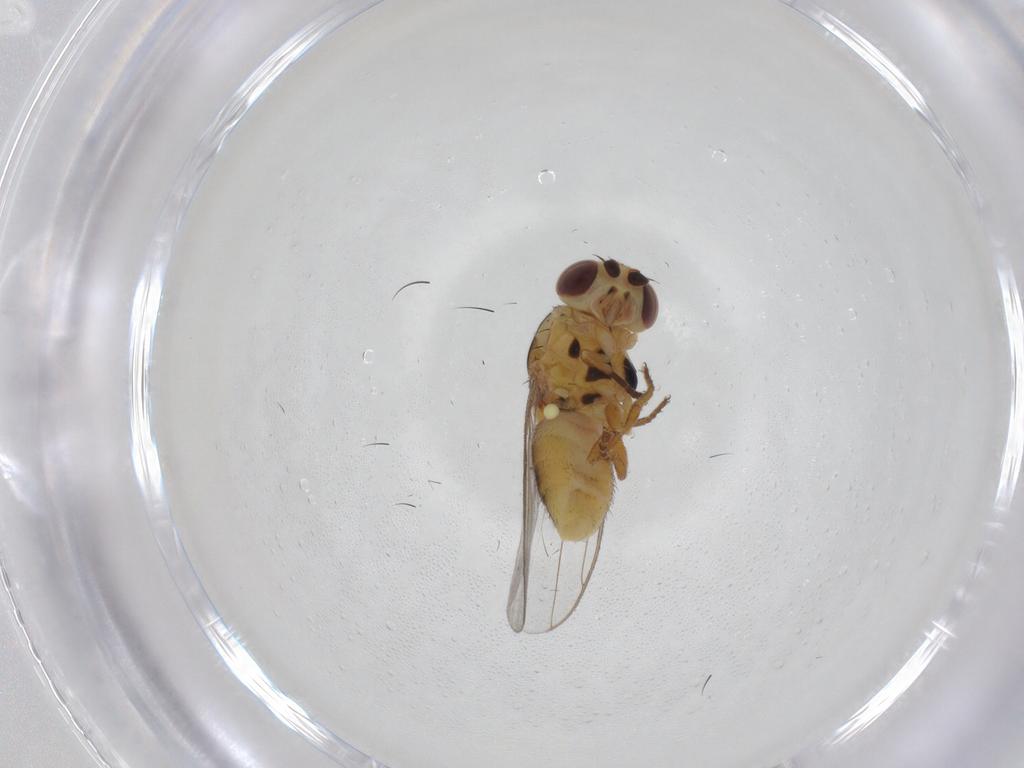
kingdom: Animalia
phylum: Arthropoda
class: Insecta
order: Diptera
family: Chloropidae
